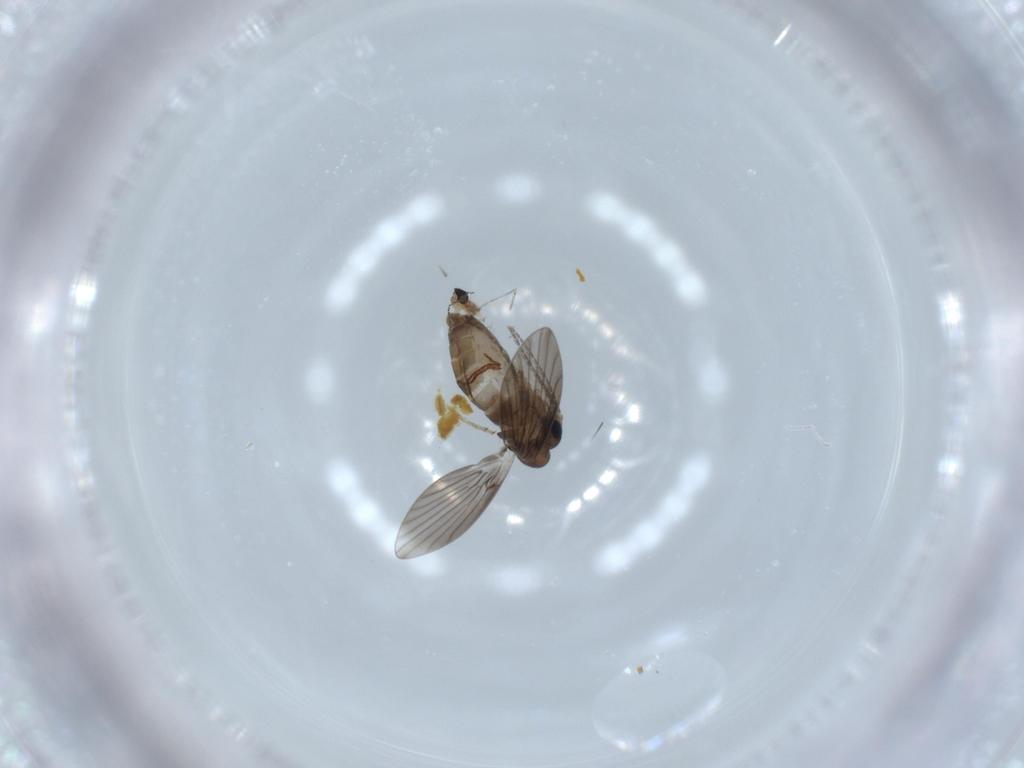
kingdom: Animalia
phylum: Arthropoda
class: Insecta
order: Diptera
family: Cecidomyiidae
